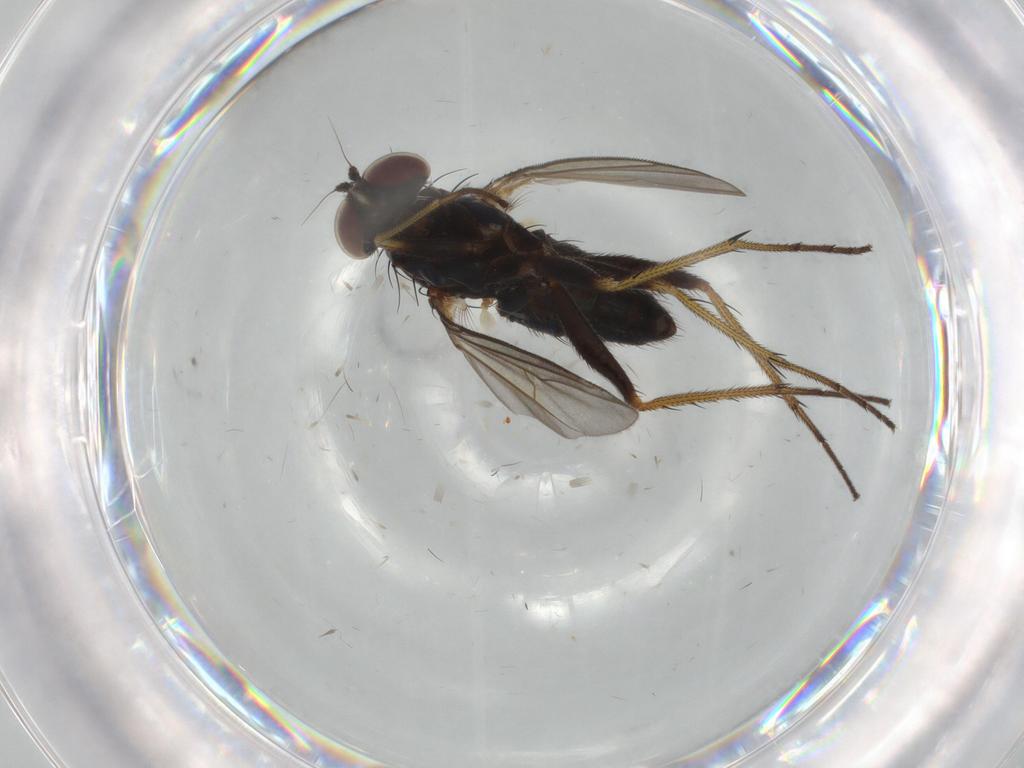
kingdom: Animalia
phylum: Arthropoda
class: Insecta
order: Diptera
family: Dolichopodidae
